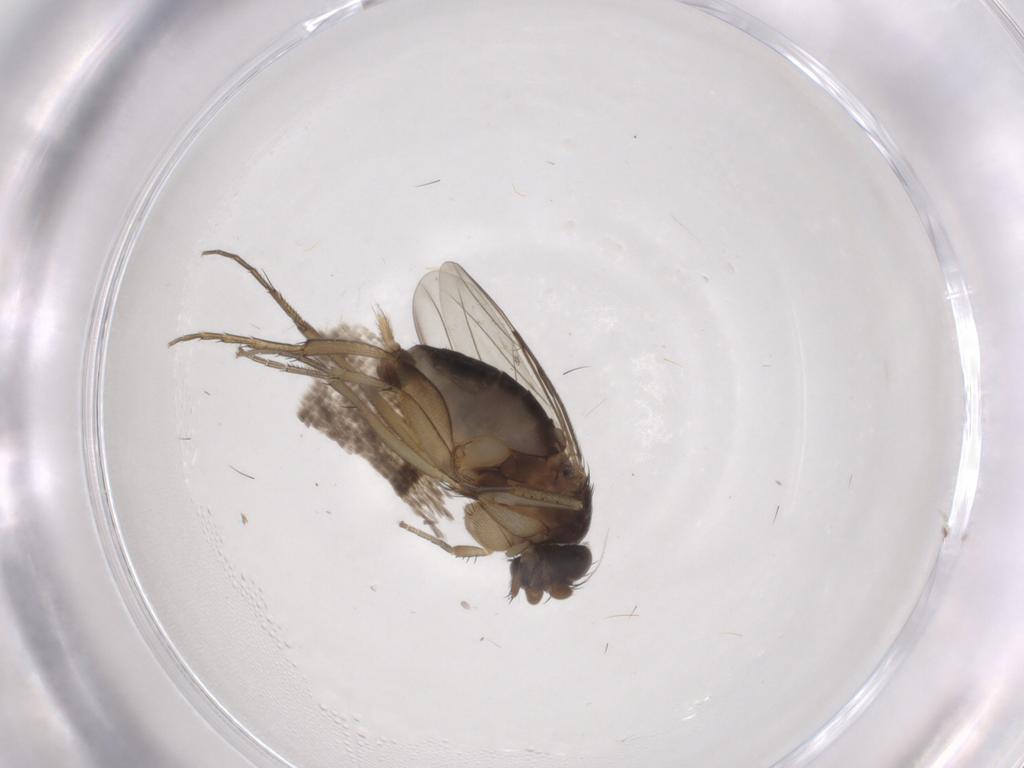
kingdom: Animalia
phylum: Arthropoda
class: Insecta
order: Diptera
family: Phoridae
